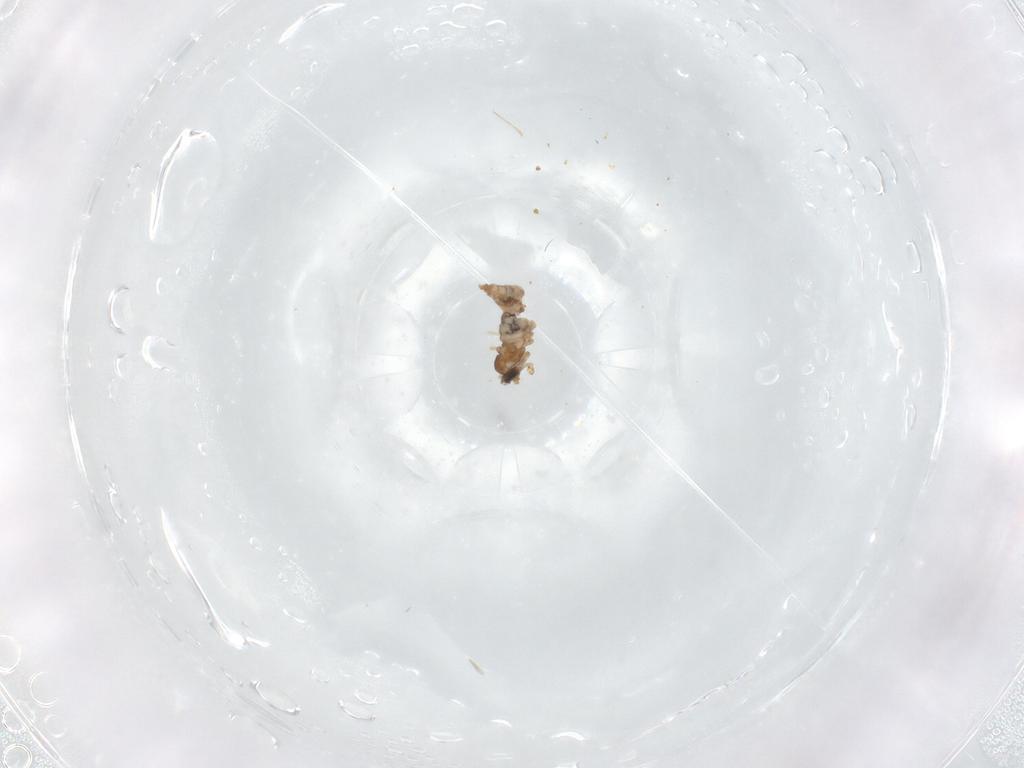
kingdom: Animalia
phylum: Arthropoda
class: Insecta
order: Diptera
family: Cecidomyiidae
